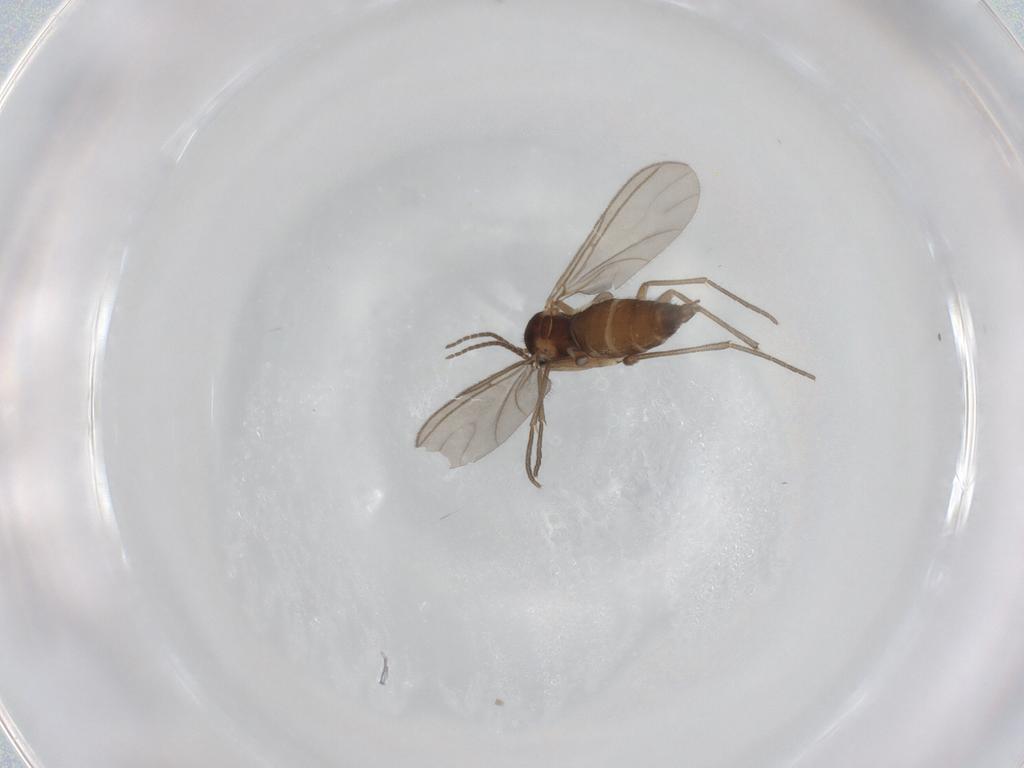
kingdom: Animalia
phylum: Arthropoda
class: Insecta
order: Diptera
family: Sciaridae
